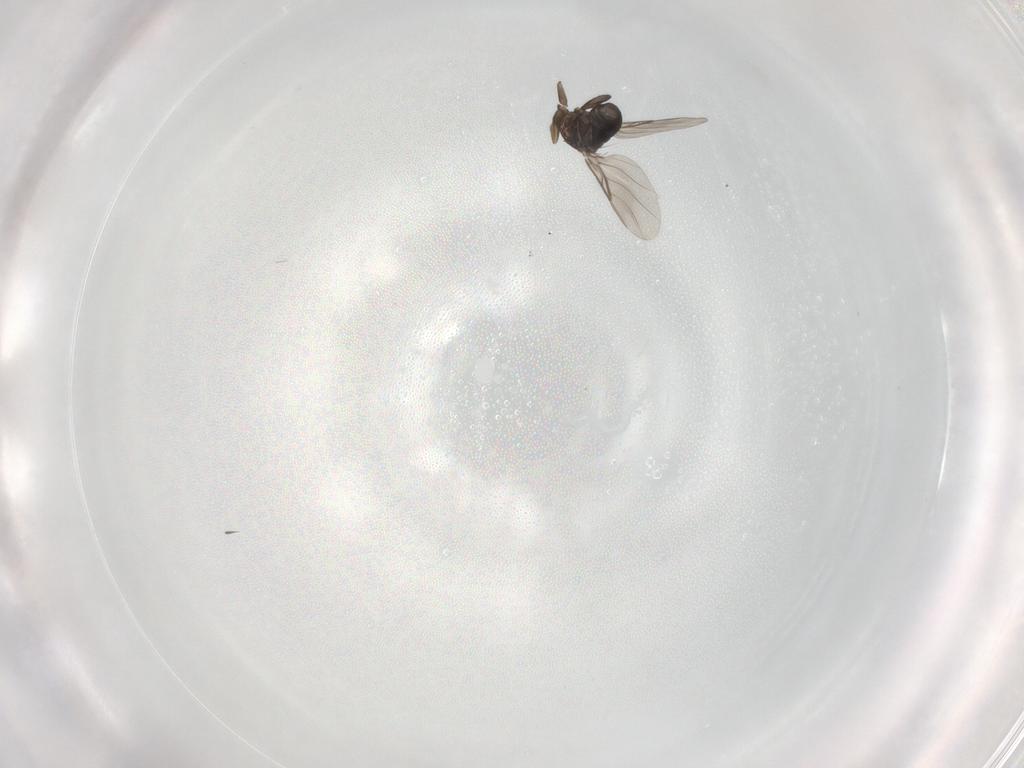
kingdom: Animalia
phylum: Arthropoda
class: Insecta
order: Diptera
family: Phoridae
